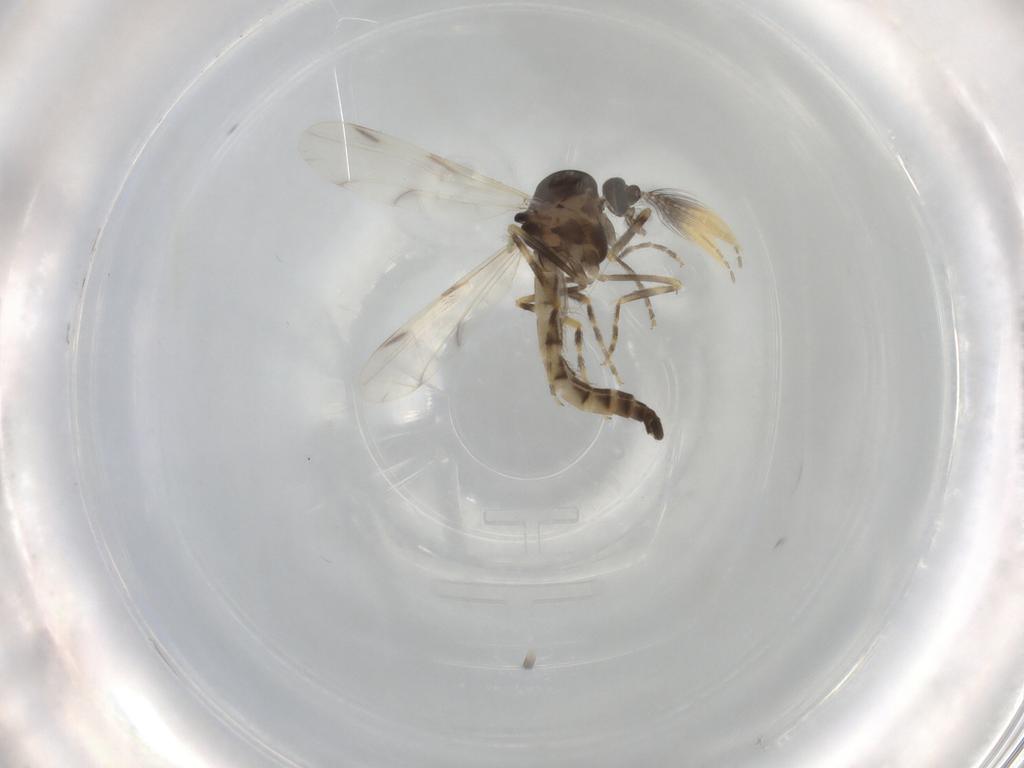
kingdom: Animalia
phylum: Arthropoda
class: Insecta
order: Diptera
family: Ceratopogonidae
